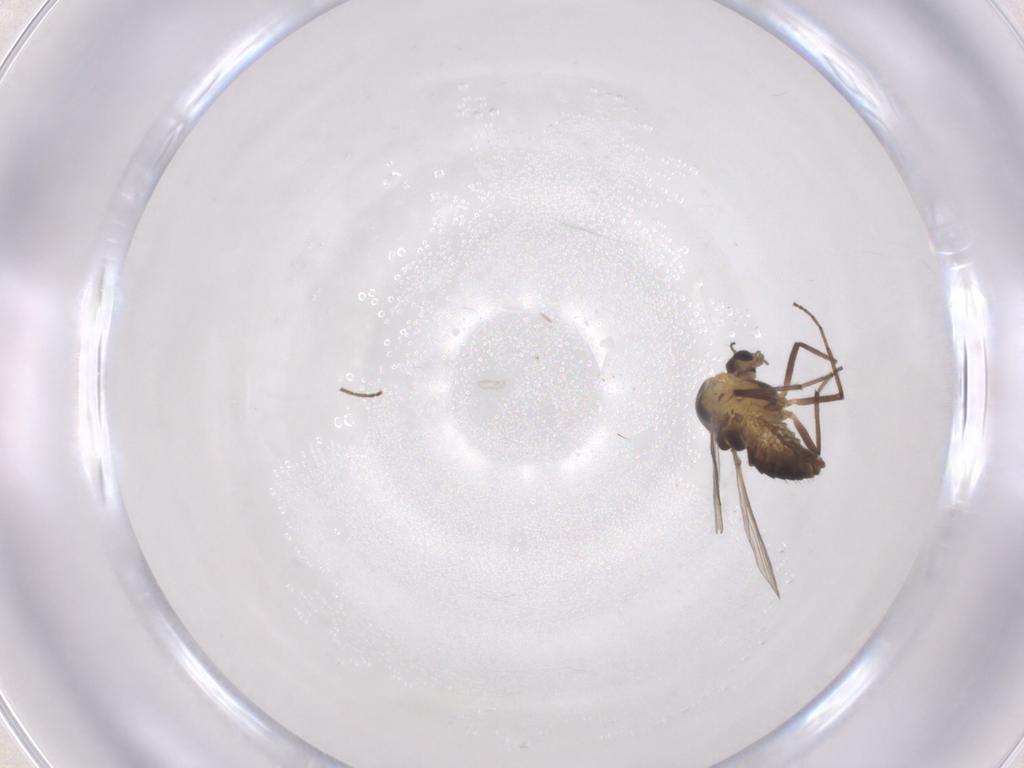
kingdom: Animalia
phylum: Arthropoda
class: Insecta
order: Diptera
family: Chironomidae
